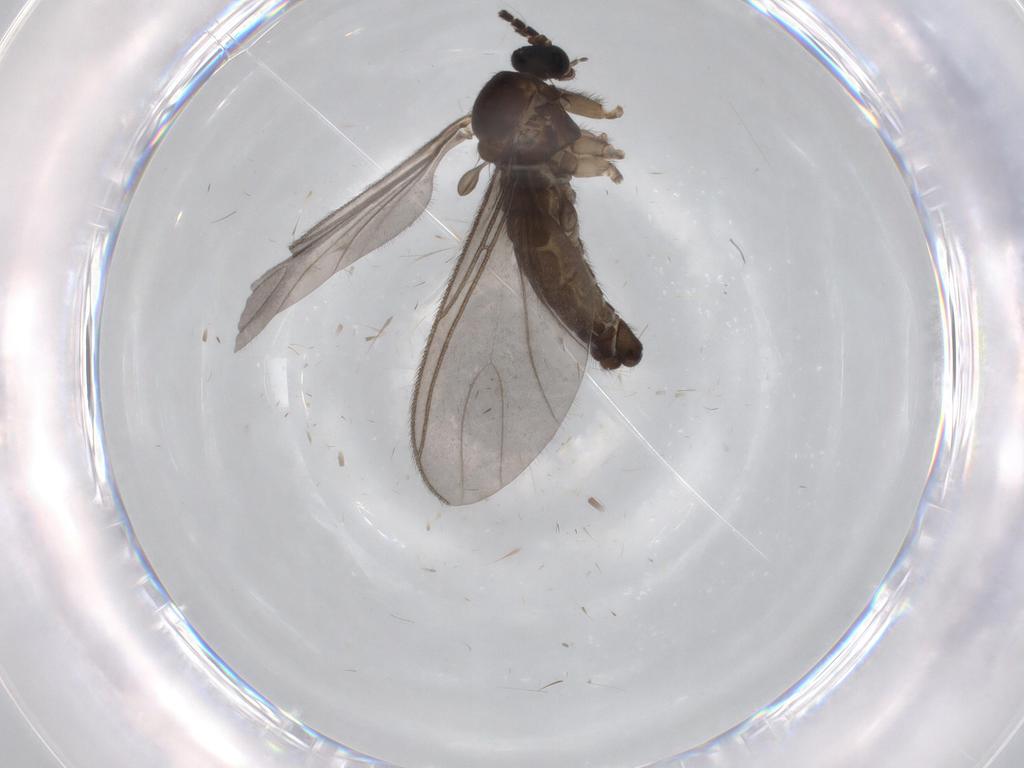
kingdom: Animalia
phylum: Arthropoda
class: Insecta
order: Diptera
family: Sciaridae
